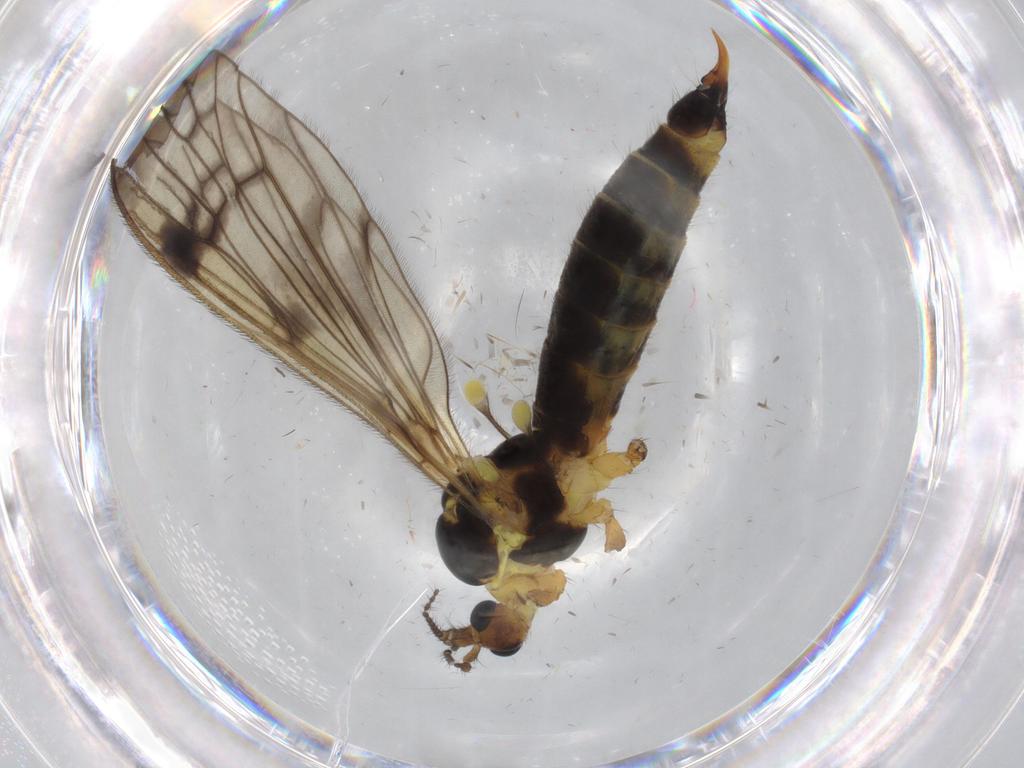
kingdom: Animalia
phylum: Arthropoda
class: Insecta
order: Diptera
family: Limoniidae
